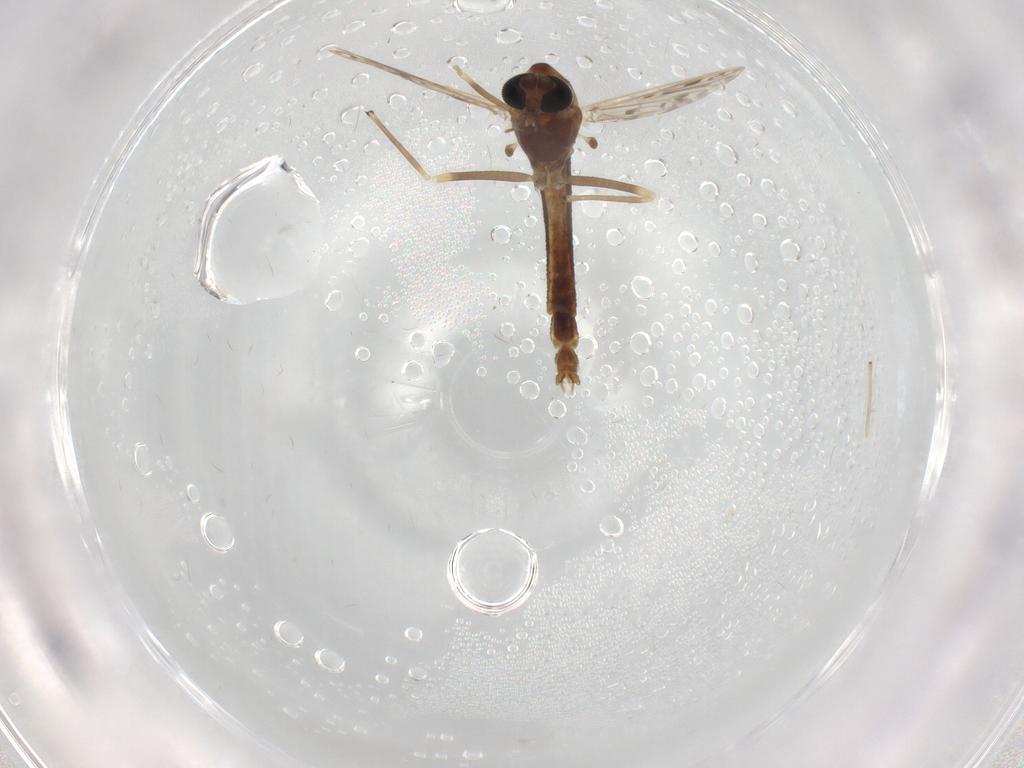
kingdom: Animalia
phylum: Arthropoda
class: Insecta
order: Diptera
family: Chironomidae
